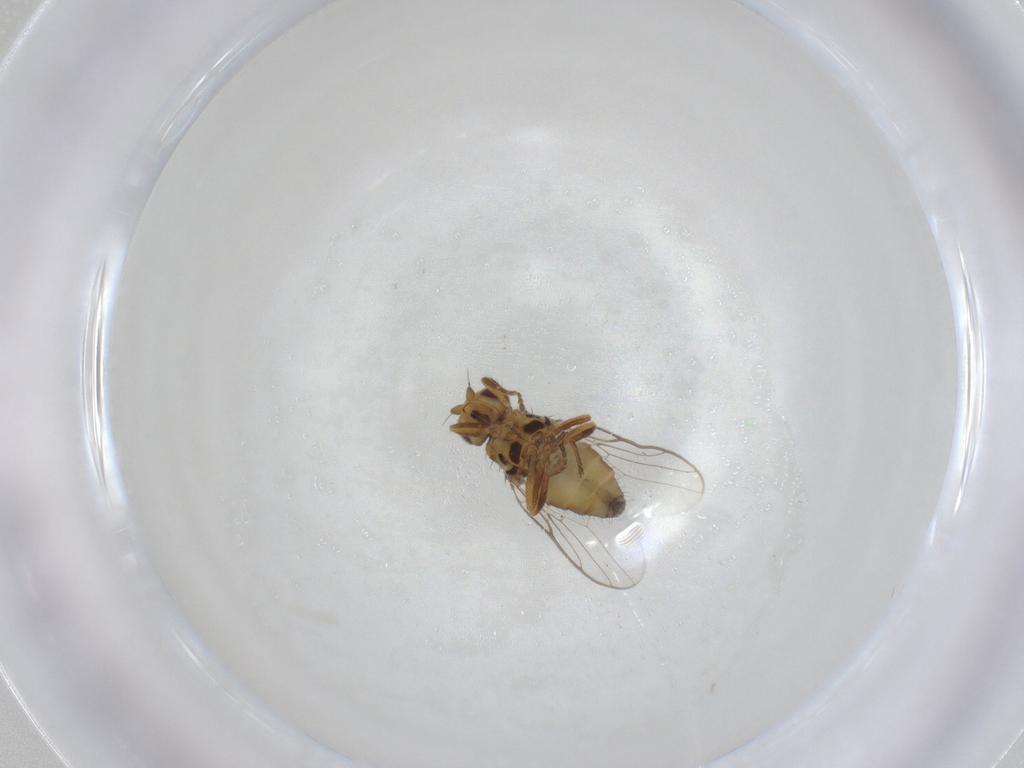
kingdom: Animalia
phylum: Arthropoda
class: Insecta
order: Diptera
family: Chloropidae
